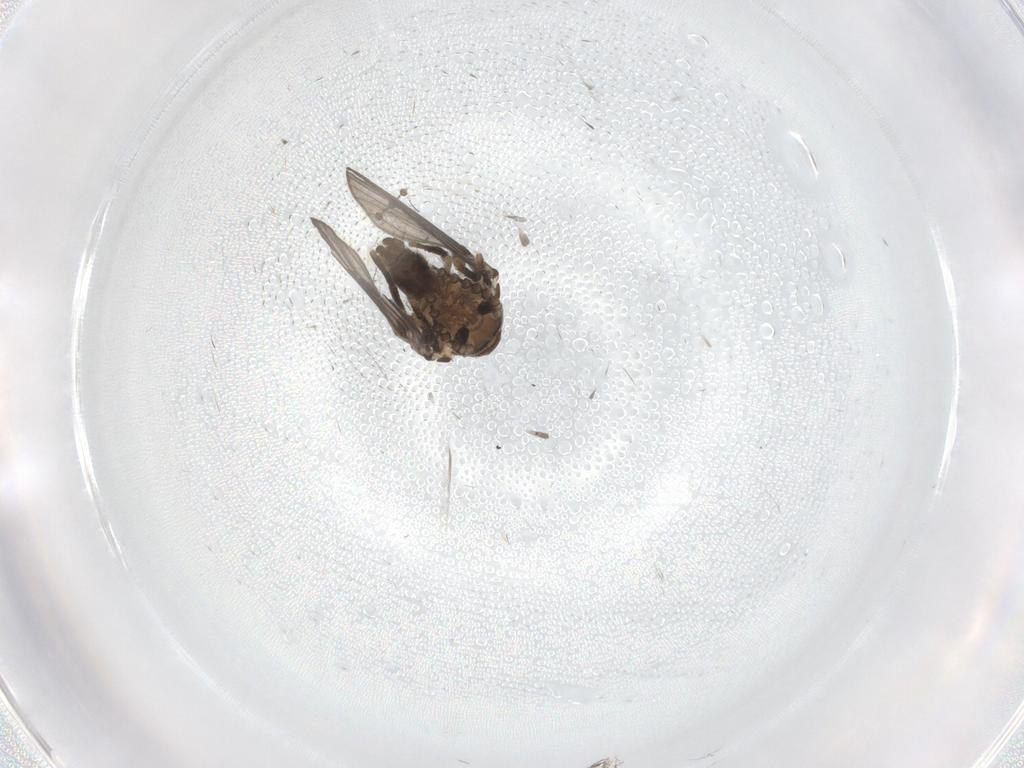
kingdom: Animalia
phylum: Arthropoda
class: Insecta
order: Diptera
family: Psychodidae
